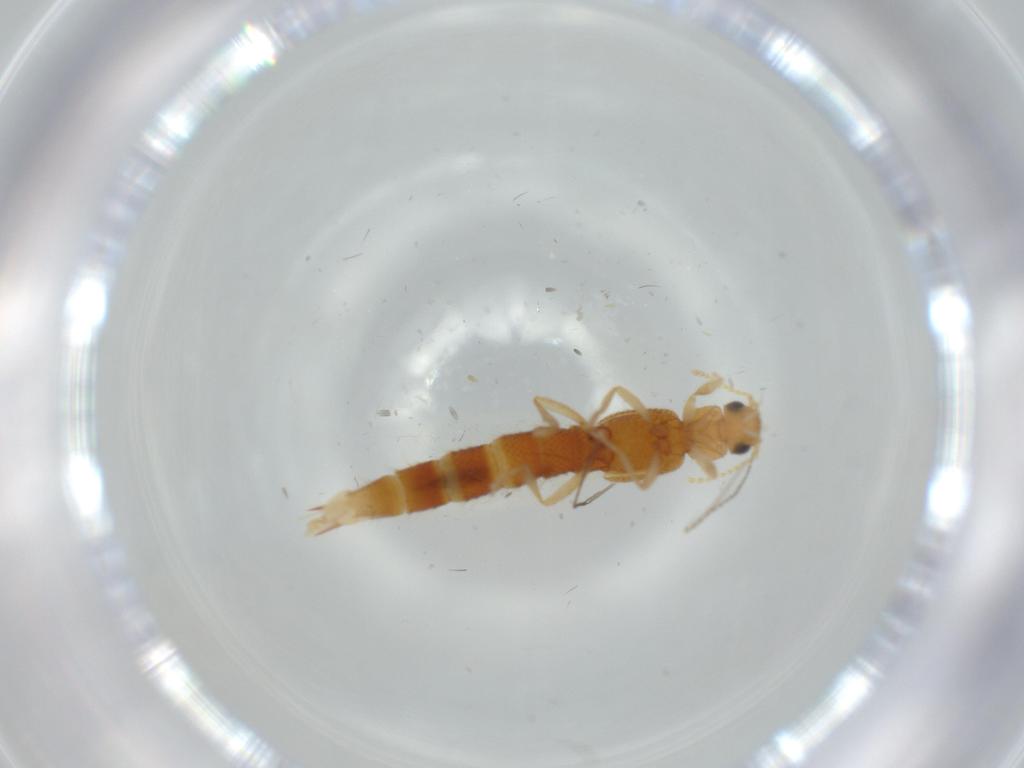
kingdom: Animalia
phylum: Arthropoda
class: Insecta
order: Coleoptera
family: Staphylinidae
